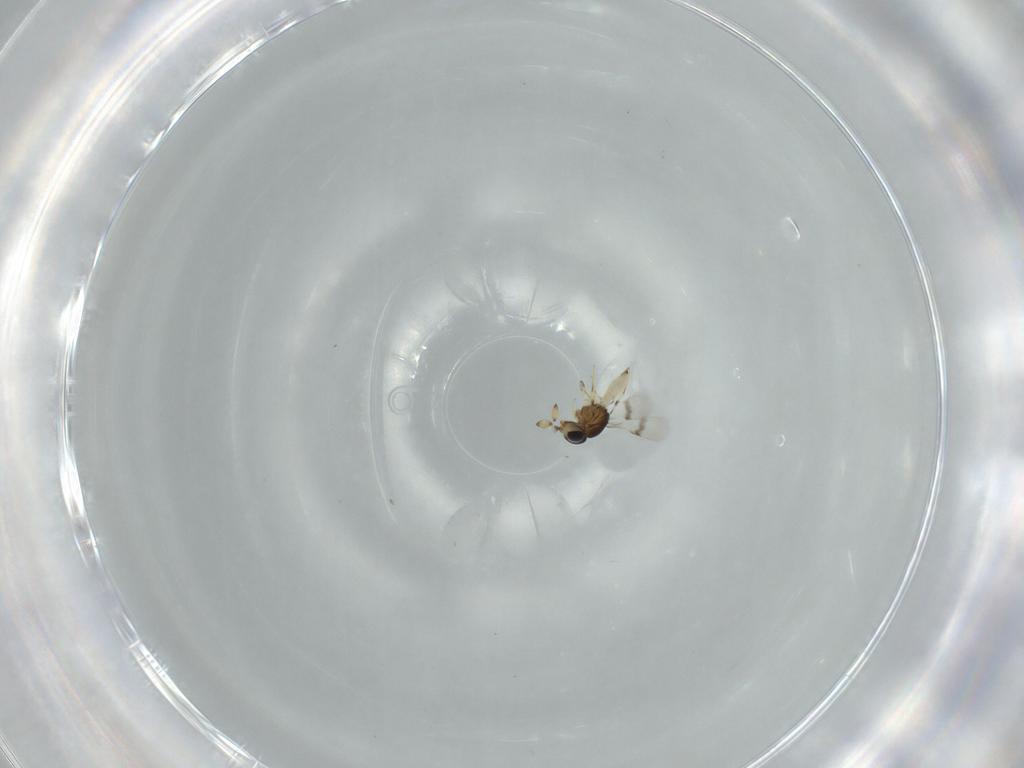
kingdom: Animalia
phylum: Arthropoda
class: Insecta
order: Hymenoptera
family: Scelionidae
